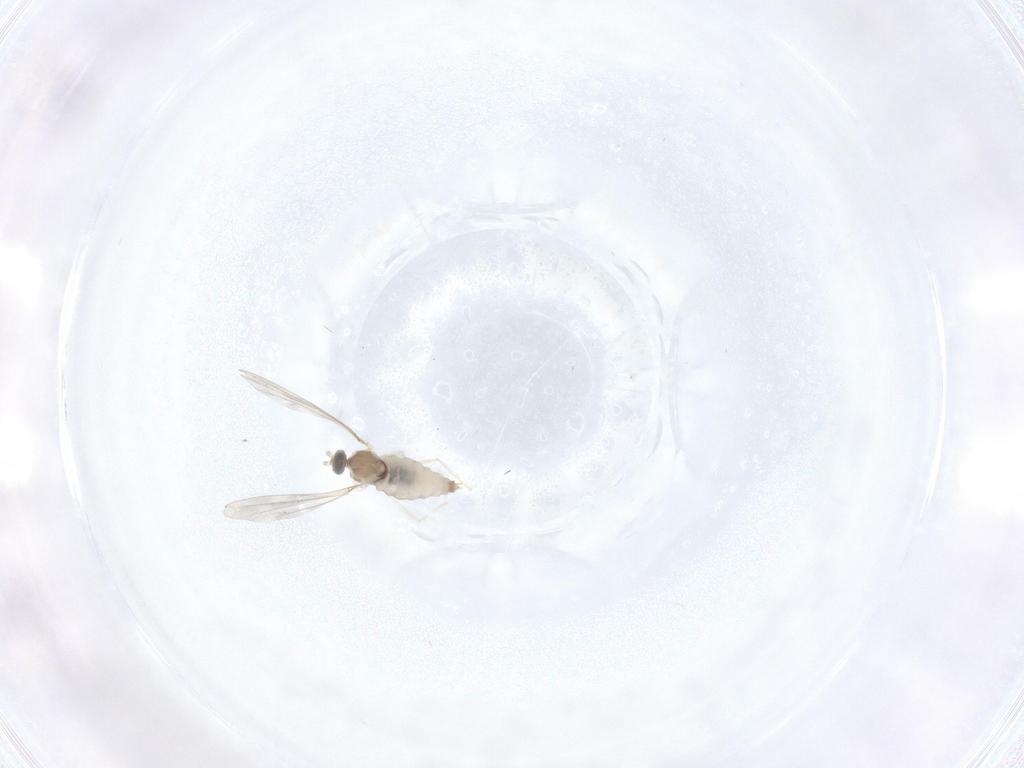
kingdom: Animalia
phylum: Arthropoda
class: Insecta
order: Diptera
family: Cecidomyiidae
